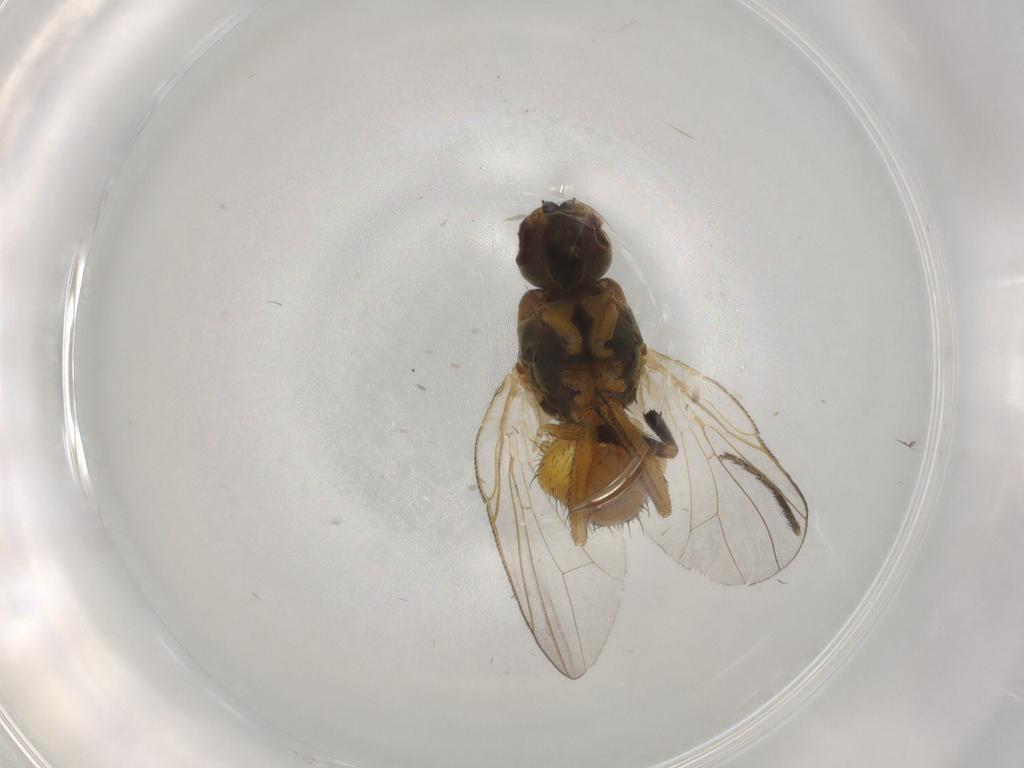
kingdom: Animalia
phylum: Arthropoda
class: Insecta
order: Diptera
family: Muscidae
